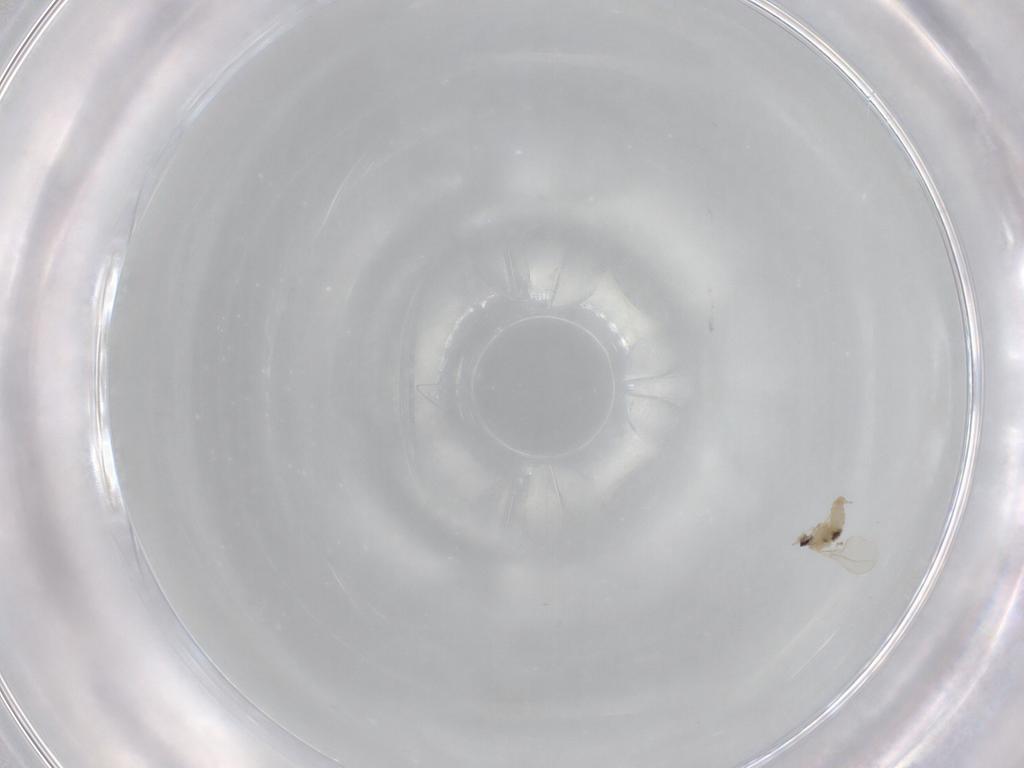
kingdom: Animalia
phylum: Arthropoda
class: Insecta
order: Diptera
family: Cecidomyiidae
